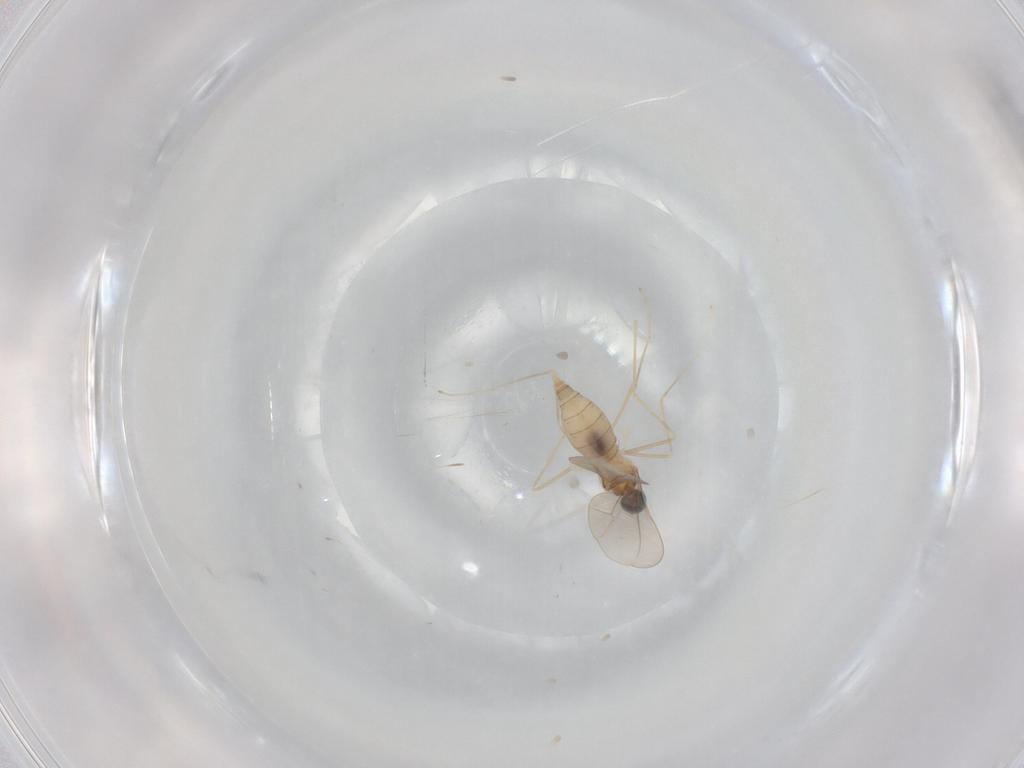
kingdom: Animalia
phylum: Arthropoda
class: Insecta
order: Diptera
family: Cecidomyiidae
